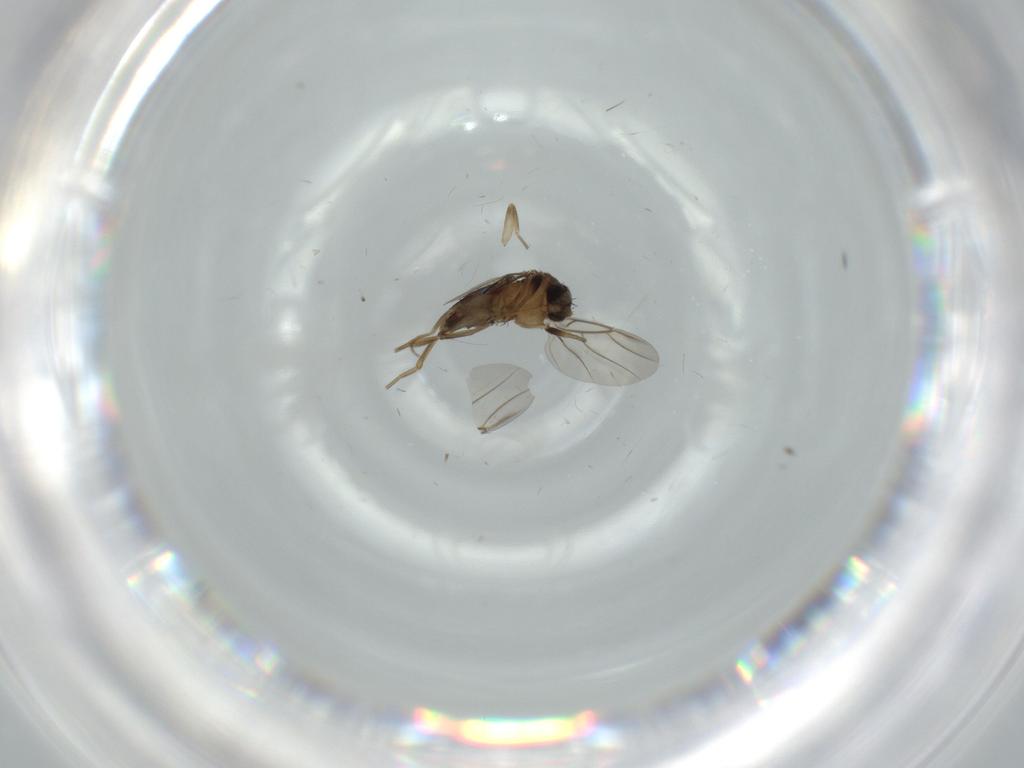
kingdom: Animalia
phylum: Arthropoda
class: Insecta
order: Diptera
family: Phoridae
